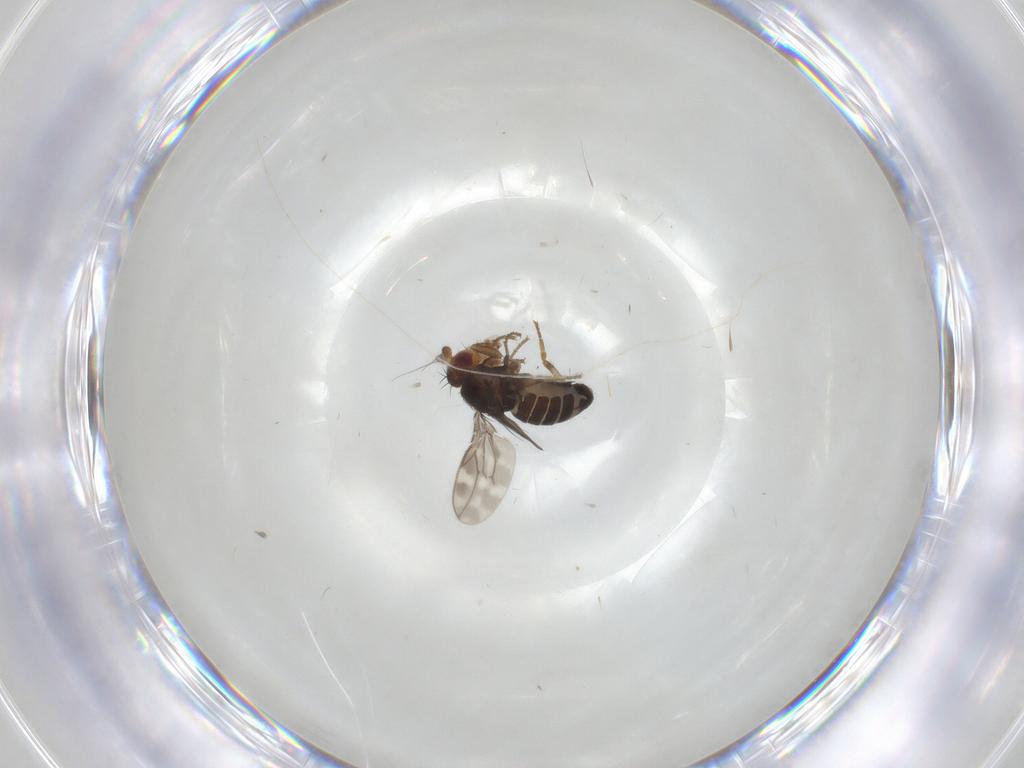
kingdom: Animalia
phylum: Arthropoda
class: Insecta
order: Diptera
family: Sphaeroceridae
